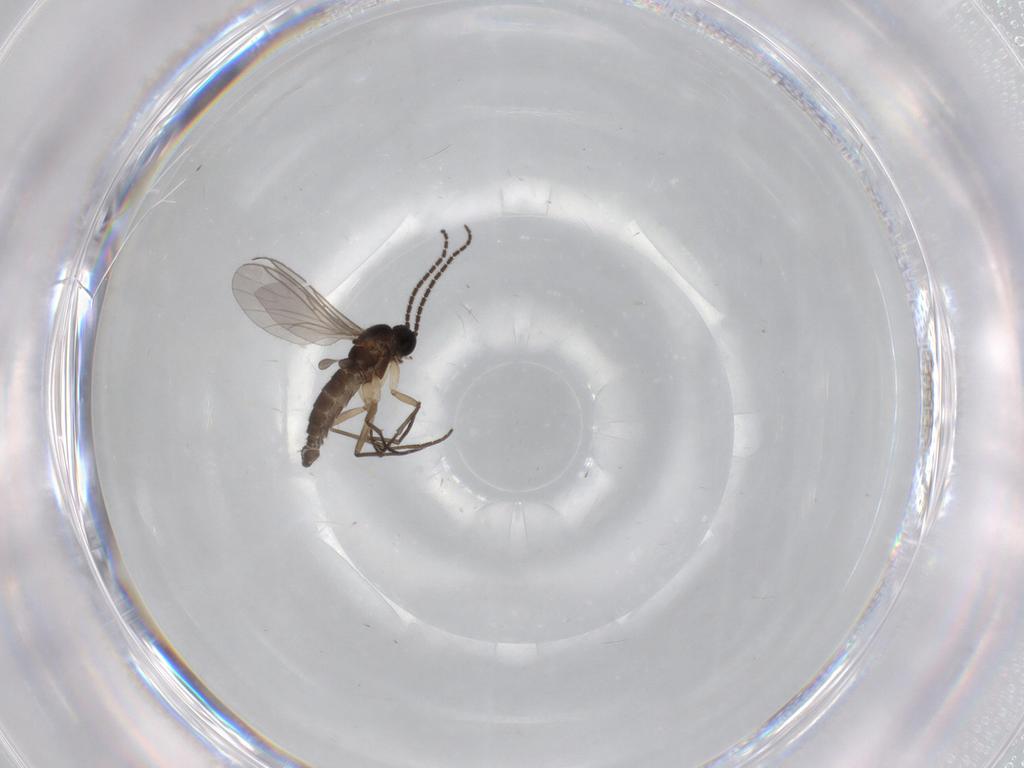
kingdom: Animalia
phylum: Arthropoda
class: Insecta
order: Diptera
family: Sciaridae
